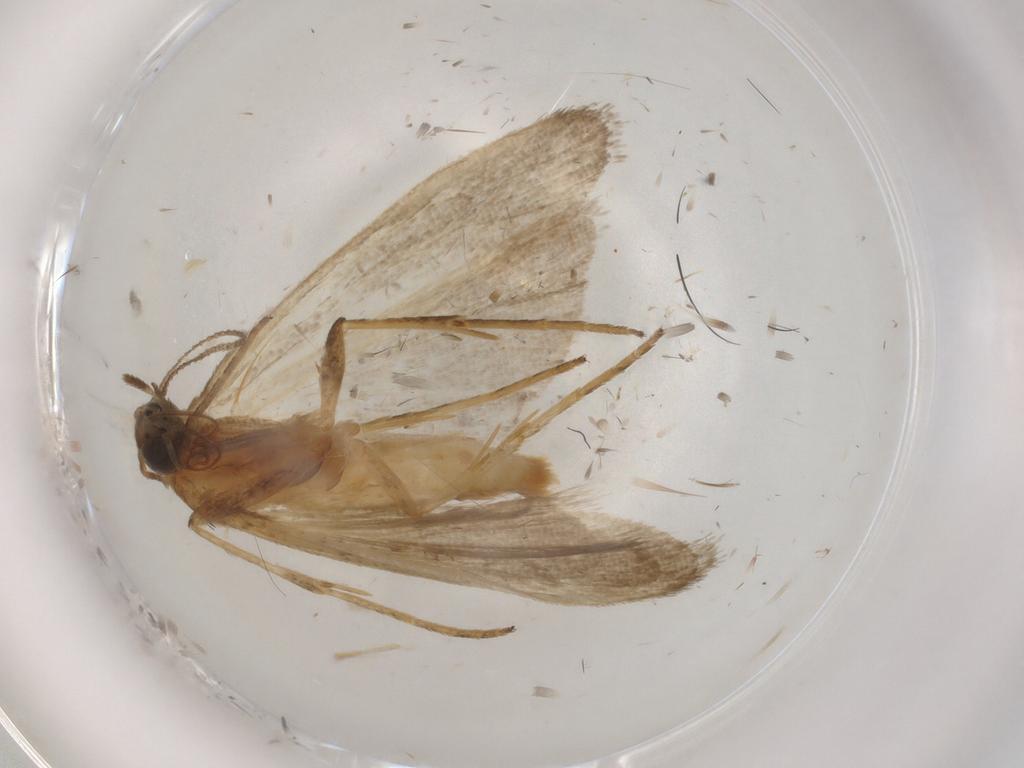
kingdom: Animalia
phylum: Arthropoda
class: Insecta
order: Lepidoptera
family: Noctuidae
